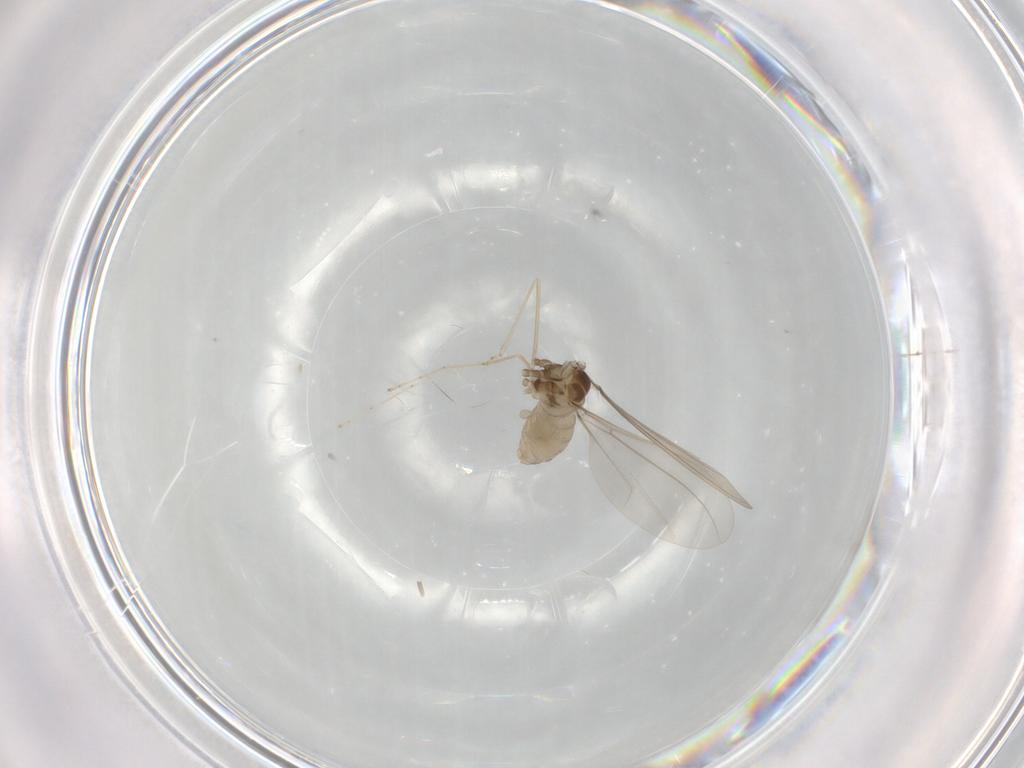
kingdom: Animalia
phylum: Arthropoda
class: Insecta
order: Diptera
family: Cecidomyiidae
